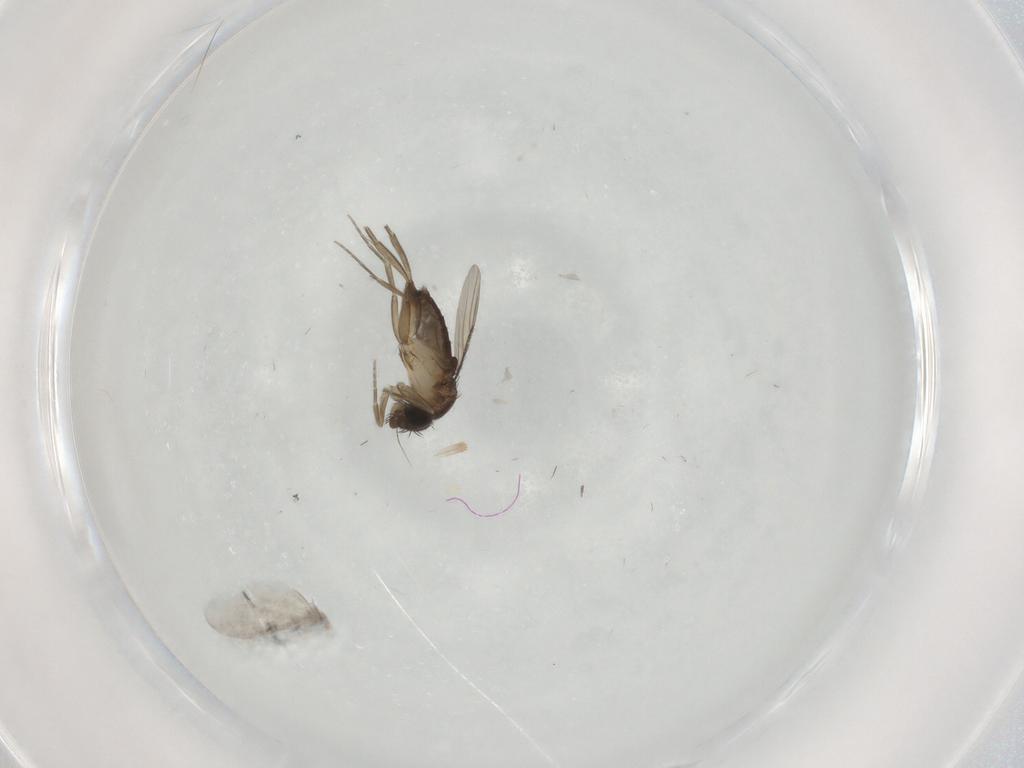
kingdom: Animalia
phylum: Arthropoda
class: Insecta
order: Diptera
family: Phoridae
